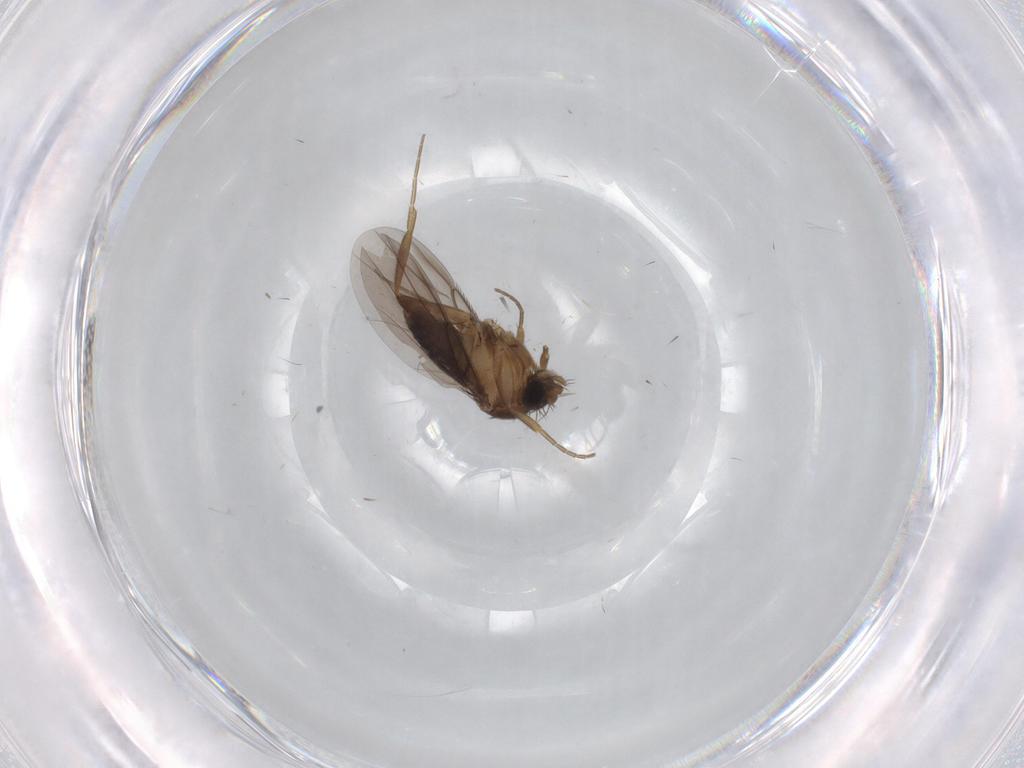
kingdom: Animalia
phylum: Arthropoda
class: Insecta
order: Diptera
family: Phoridae
